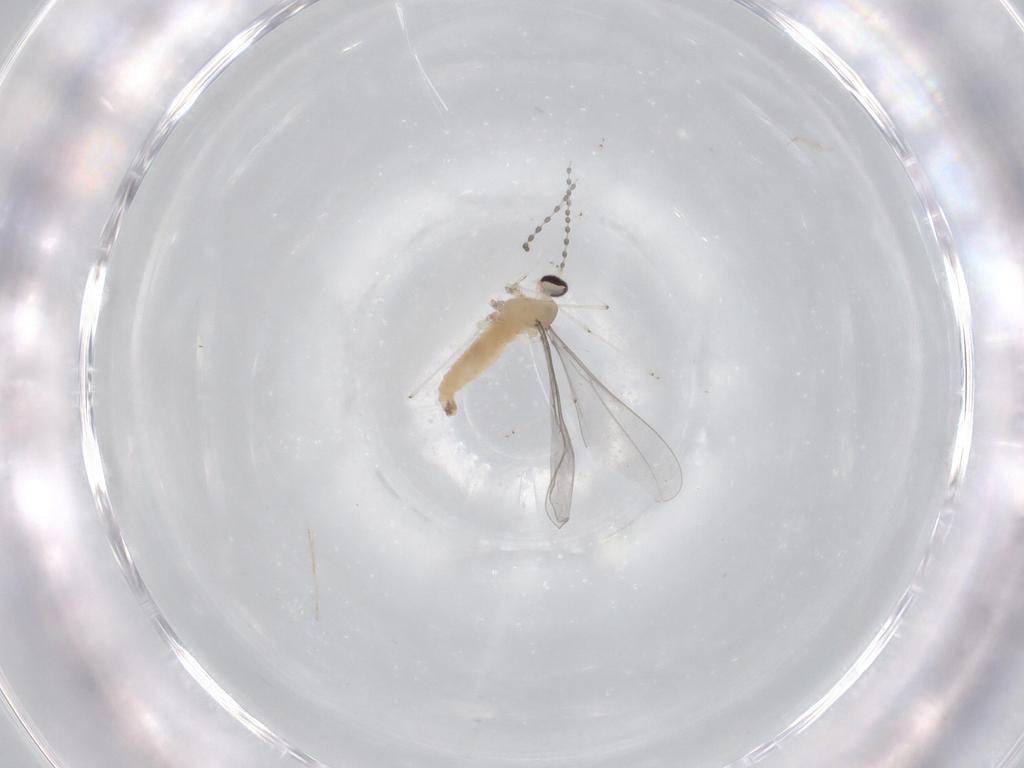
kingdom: Animalia
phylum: Arthropoda
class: Insecta
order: Diptera
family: Cecidomyiidae
